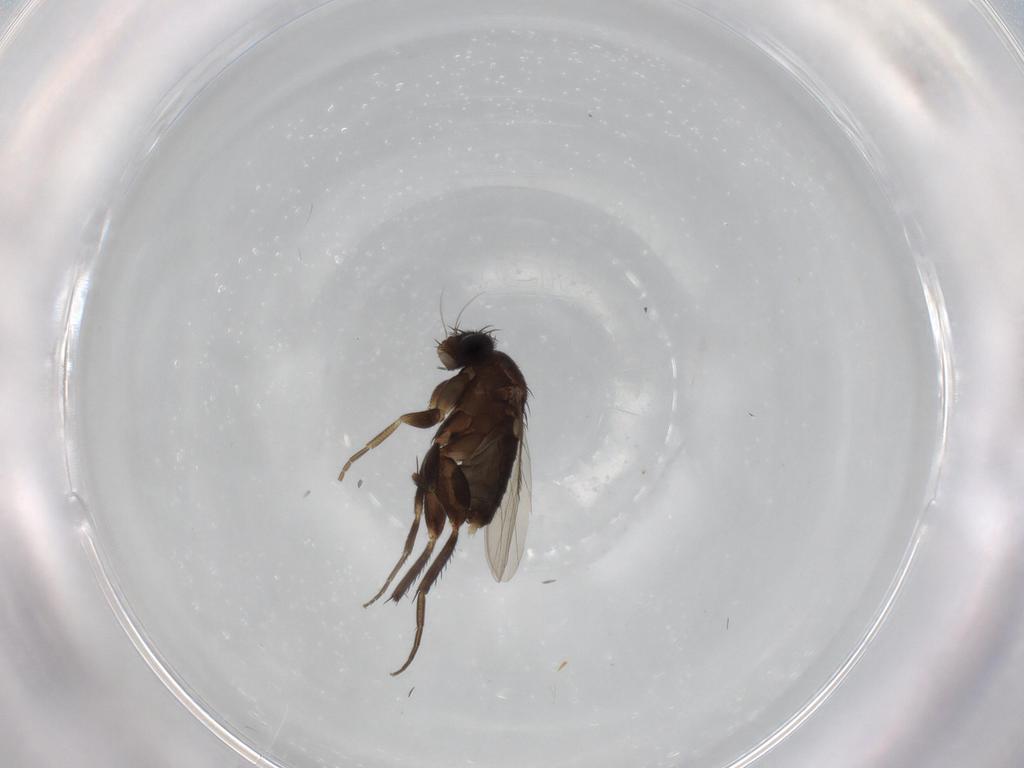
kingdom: Animalia
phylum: Arthropoda
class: Insecta
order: Diptera
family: Phoridae
